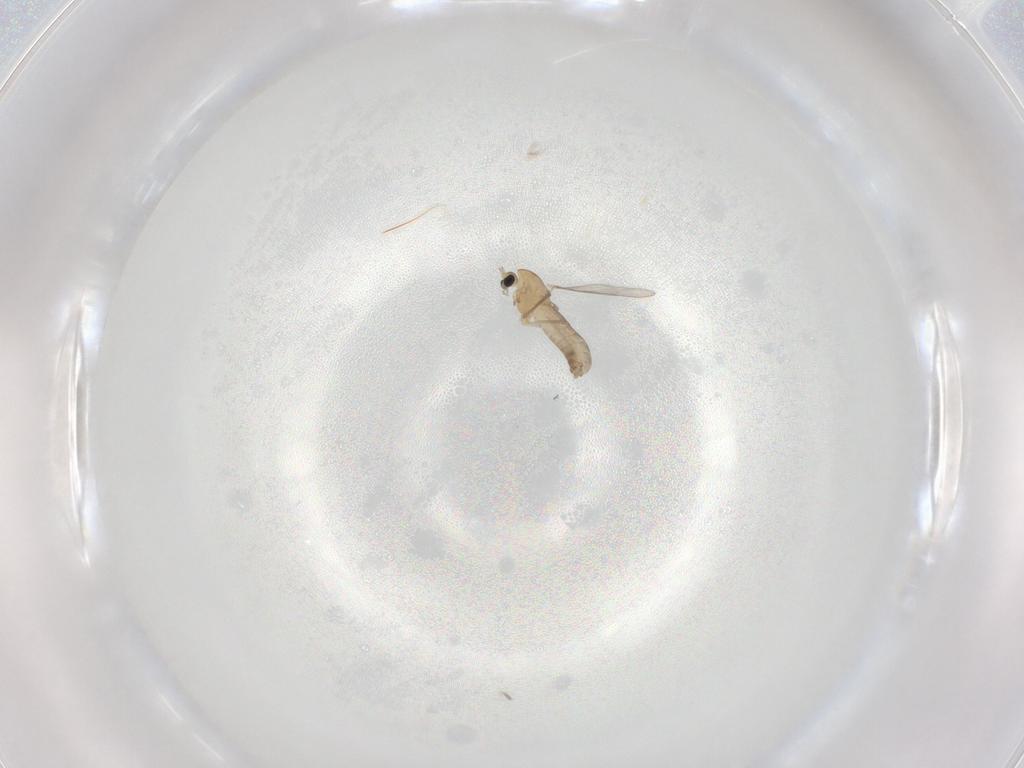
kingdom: Animalia
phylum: Arthropoda
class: Insecta
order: Diptera
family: Chironomidae
